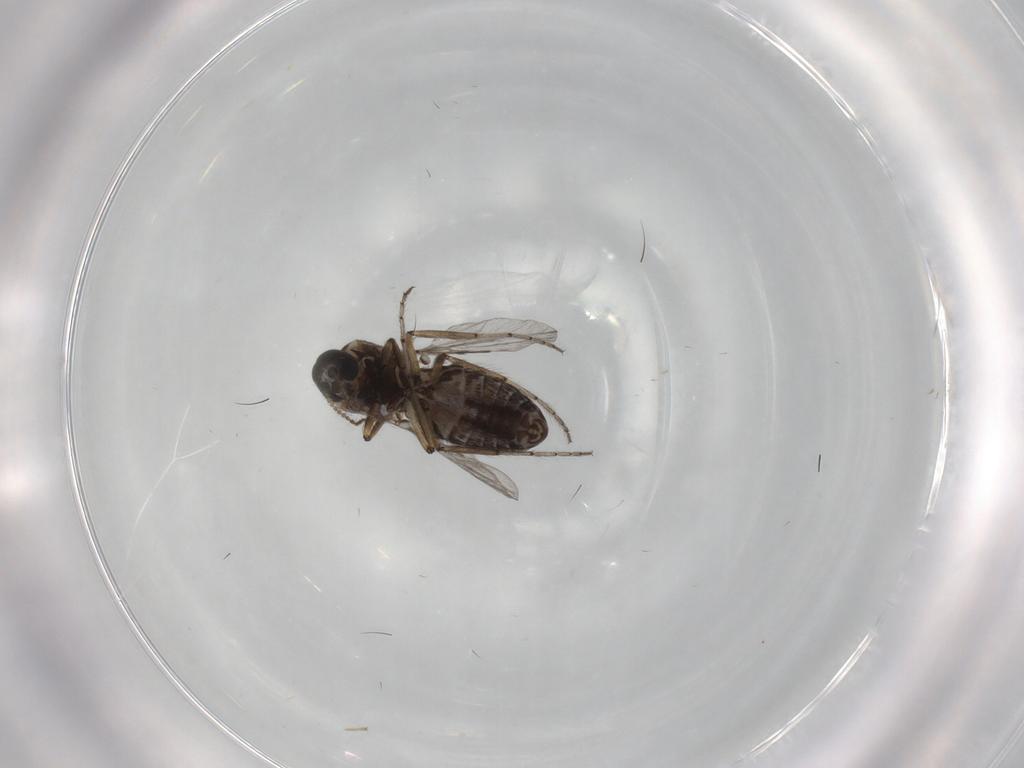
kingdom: Animalia
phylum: Arthropoda
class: Insecta
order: Diptera
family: Ceratopogonidae
